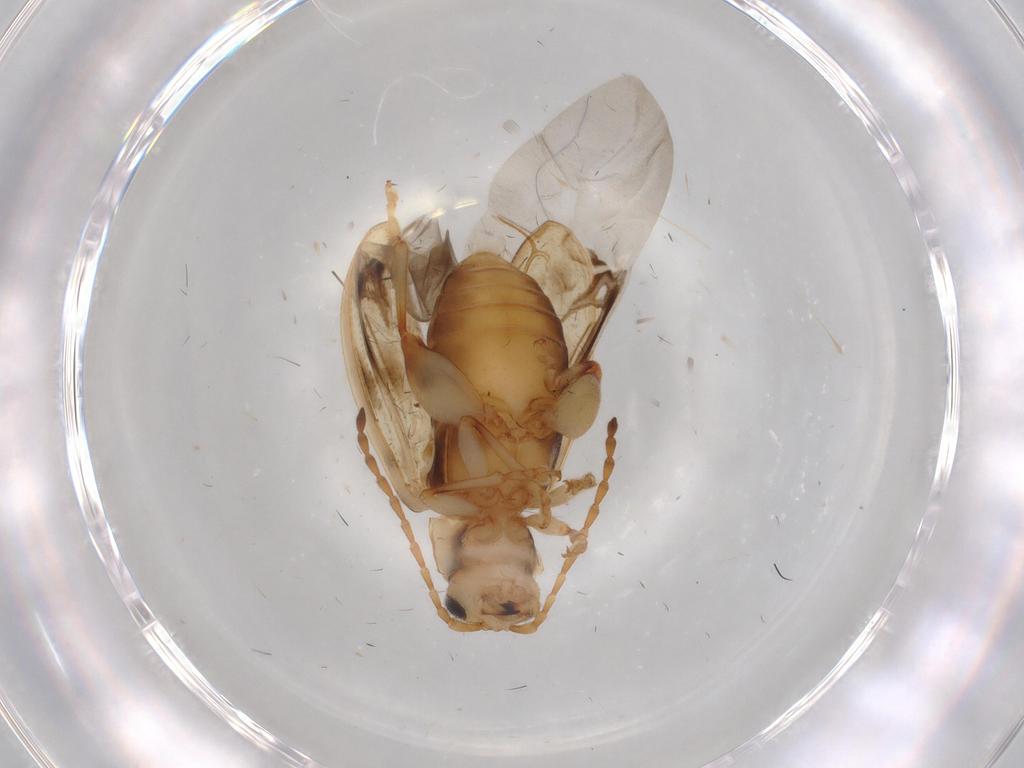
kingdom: Animalia
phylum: Arthropoda
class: Insecta
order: Coleoptera
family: Chrysomelidae
